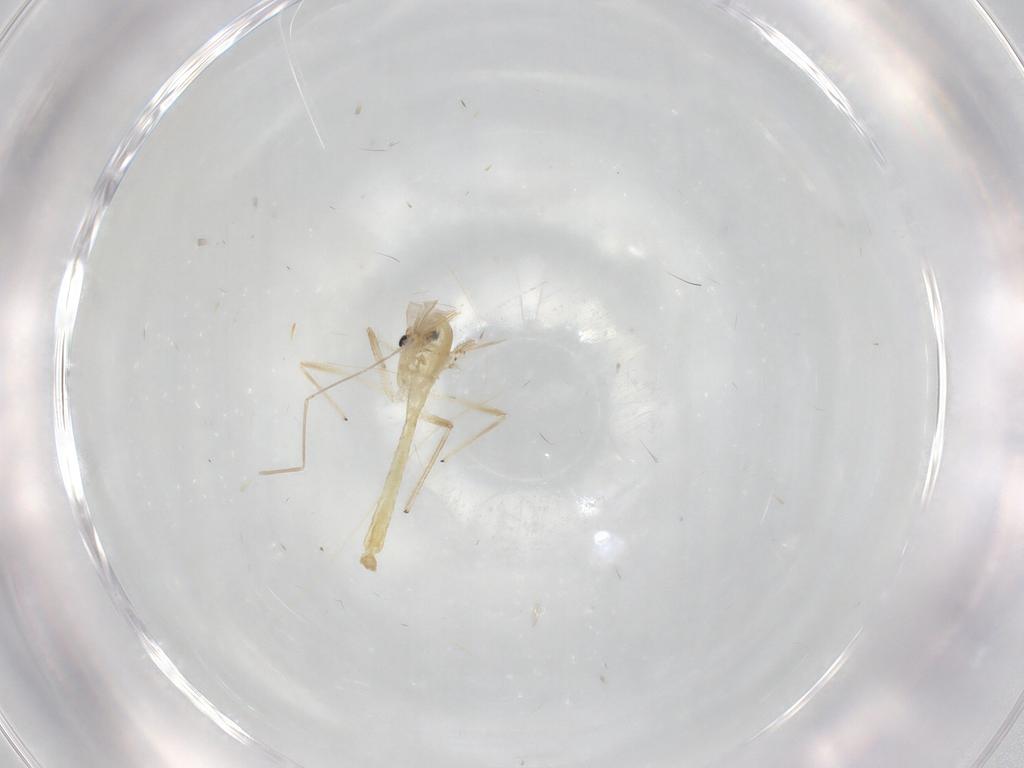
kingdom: Animalia
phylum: Arthropoda
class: Insecta
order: Diptera
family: Chironomidae
